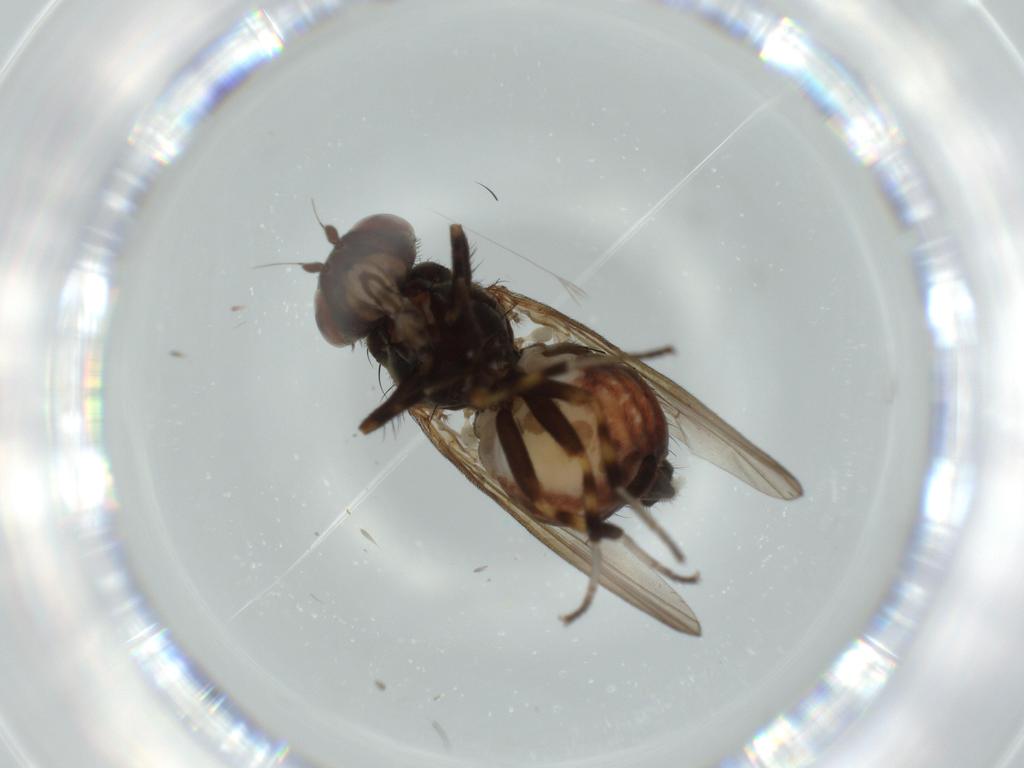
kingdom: Animalia
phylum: Arthropoda
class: Insecta
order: Diptera
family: Lauxaniidae
